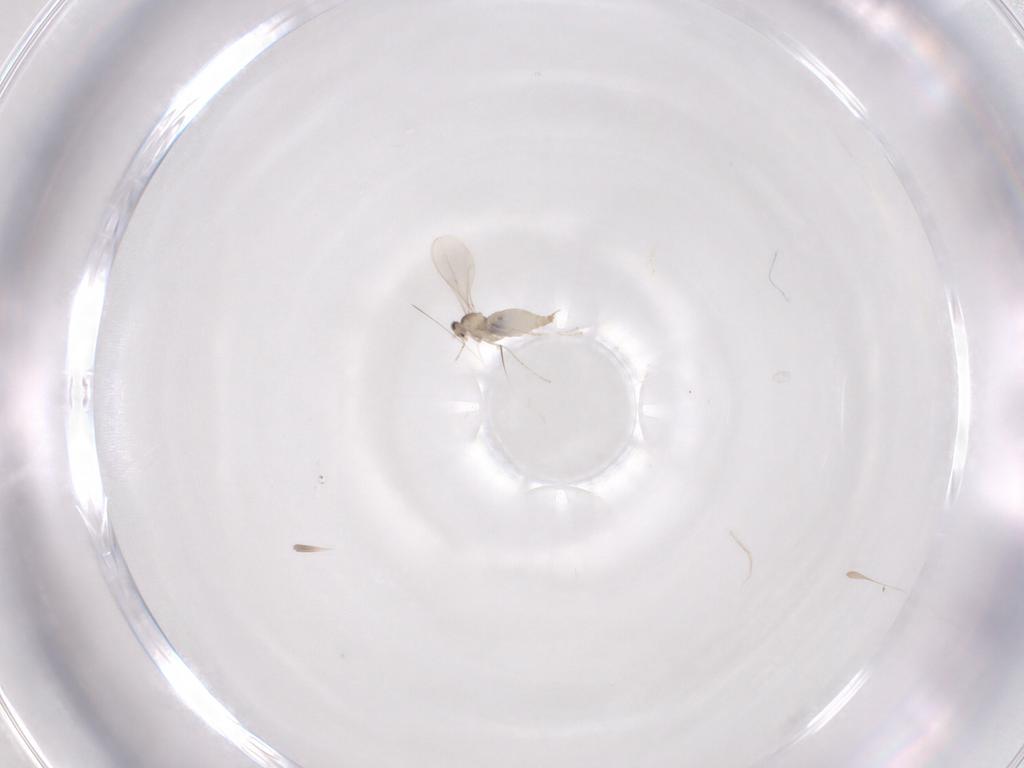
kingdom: Animalia
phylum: Arthropoda
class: Insecta
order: Diptera
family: Cecidomyiidae
